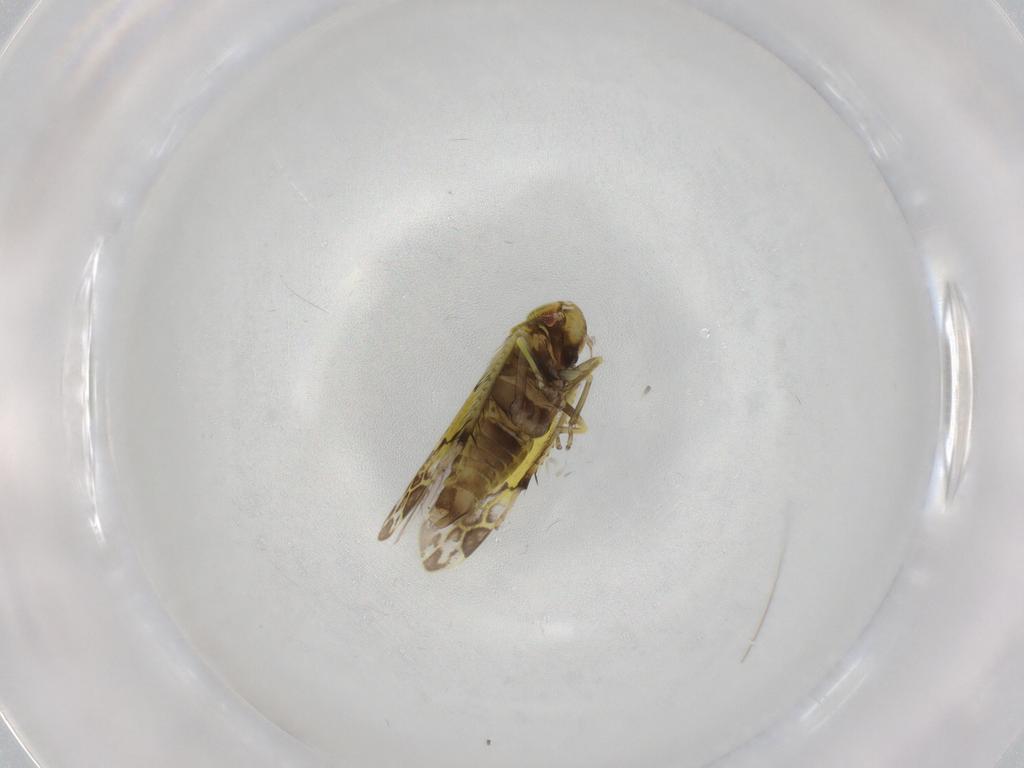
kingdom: Animalia
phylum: Arthropoda
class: Insecta
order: Hemiptera
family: Cicadellidae
